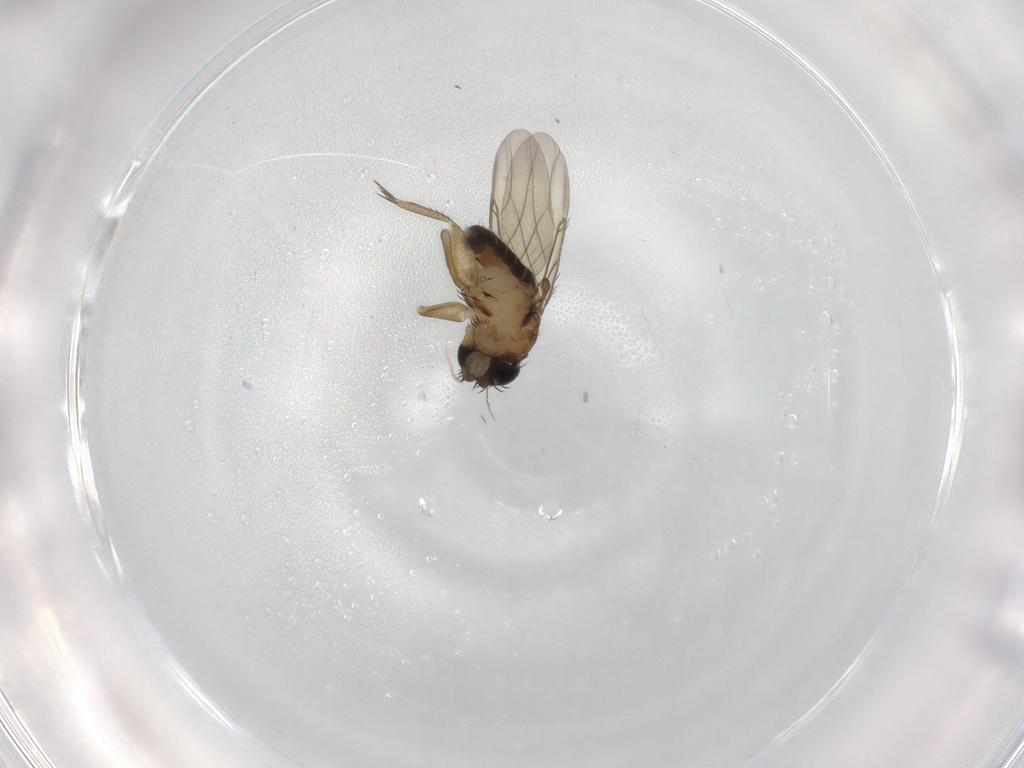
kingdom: Animalia
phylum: Arthropoda
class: Insecta
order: Diptera
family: Phoridae
